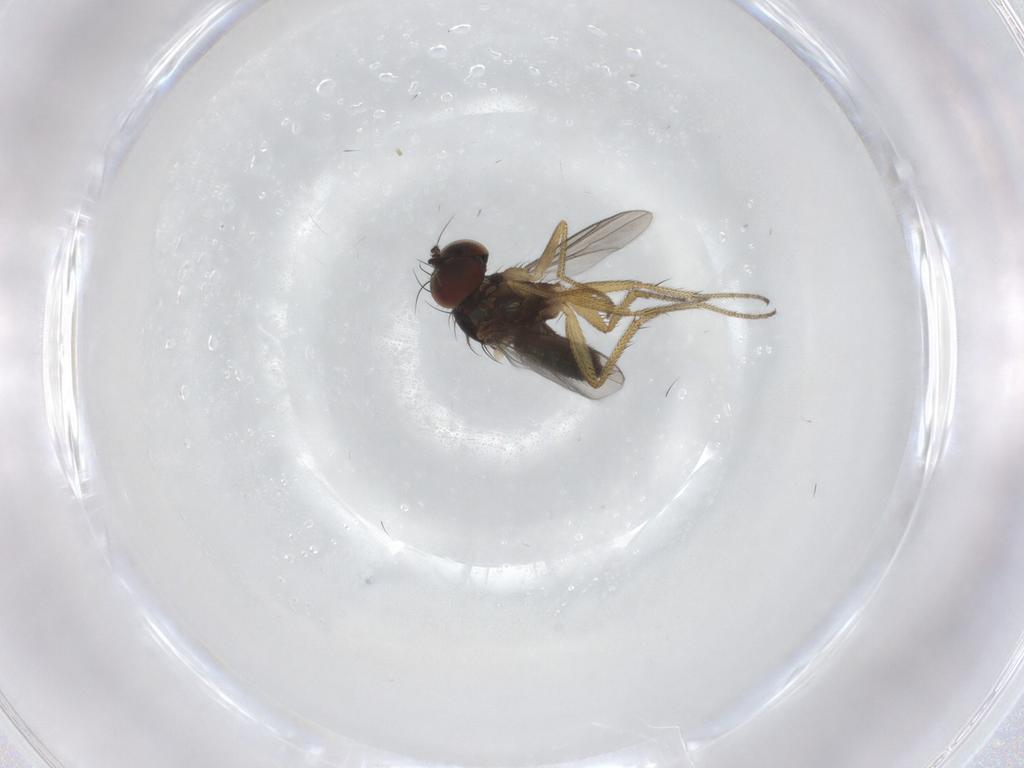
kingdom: Animalia
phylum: Arthropoda
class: Insecta
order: Diptera
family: Dolichopodidae
